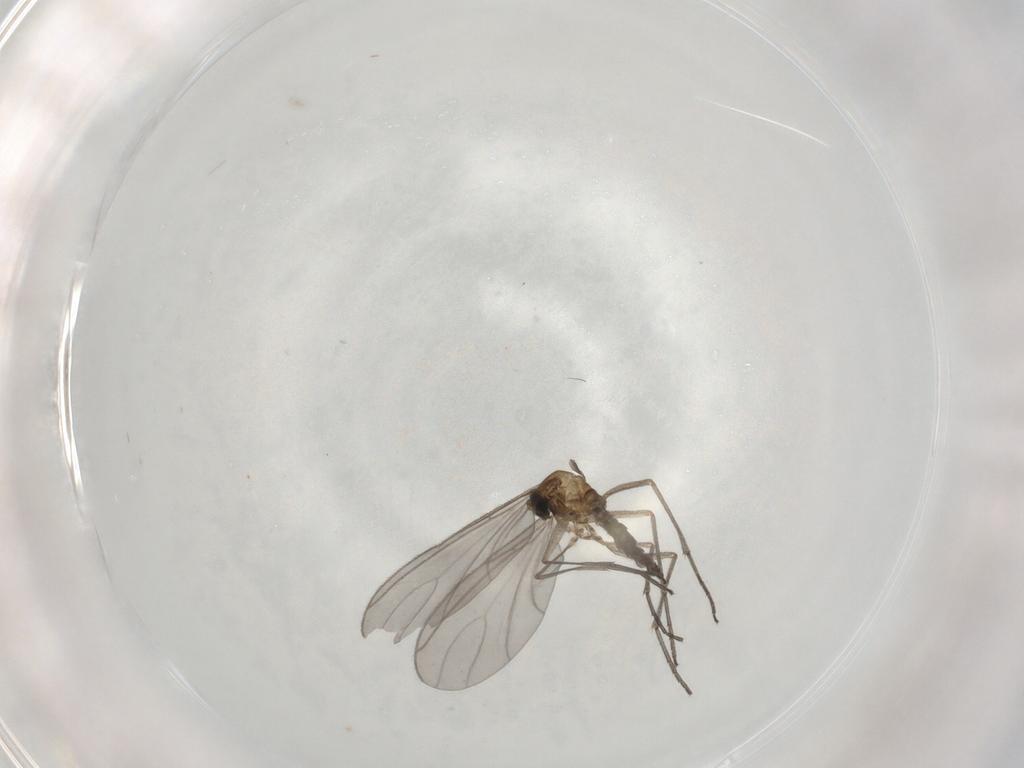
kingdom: Animalia
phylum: Arthropoda
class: Insecta
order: Diptera
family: Sciaridae
